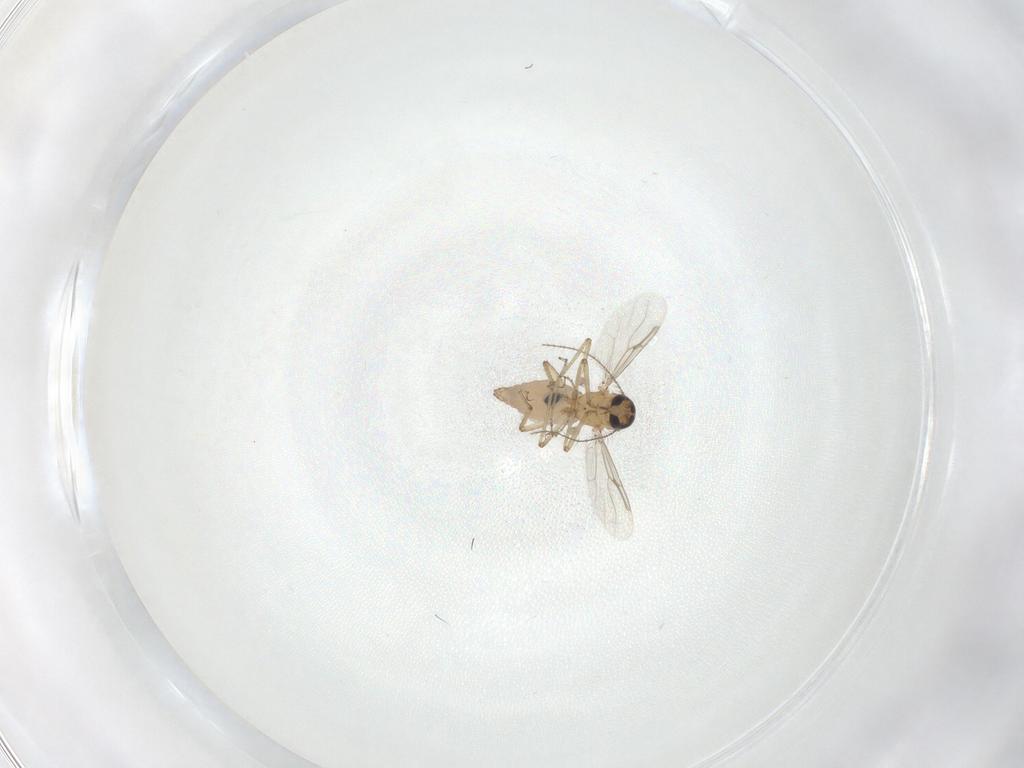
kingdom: Animalia
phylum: Arthropoda
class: Insecta
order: Diptera
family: Ceratopogonidae
